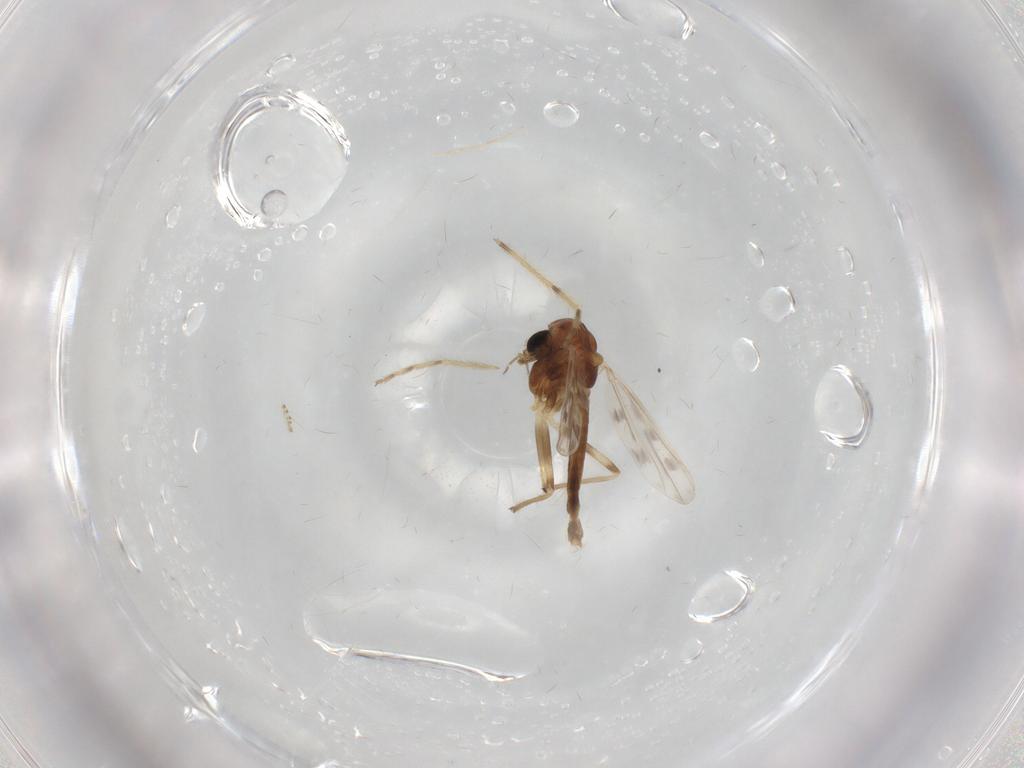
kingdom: Animalia
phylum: Arthropoda
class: Insecta
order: Diptera
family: Chironomidae
